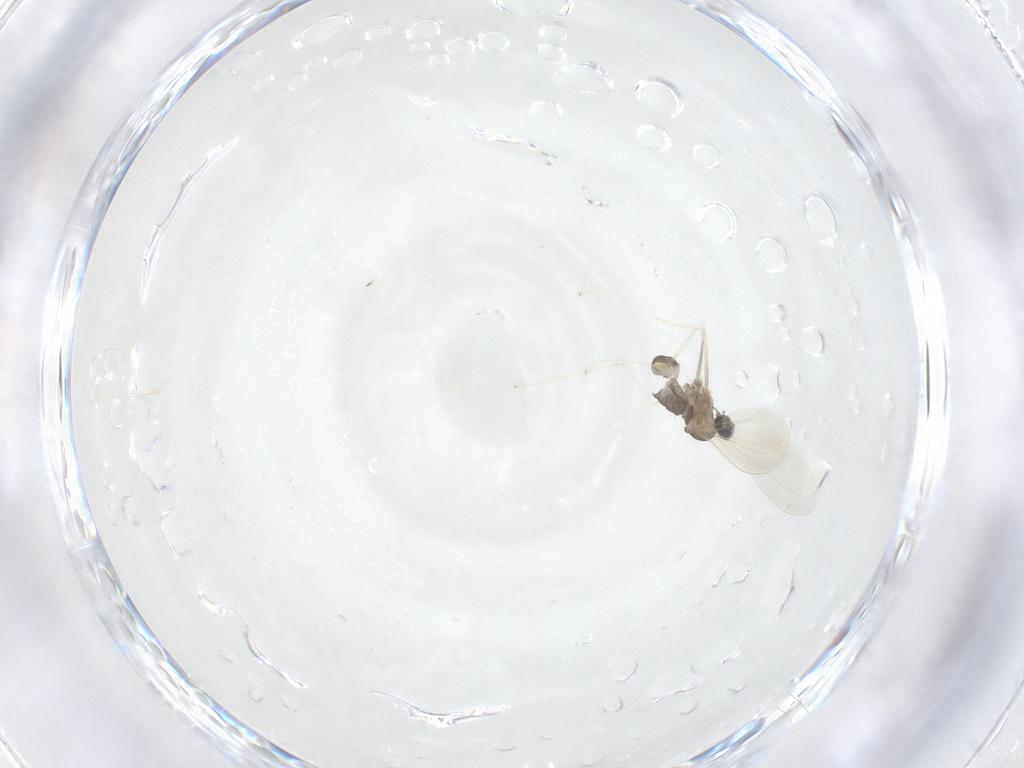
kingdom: Animalia
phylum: Arthropoda
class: Insecta
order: Diptera
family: Cecidomyiidae
